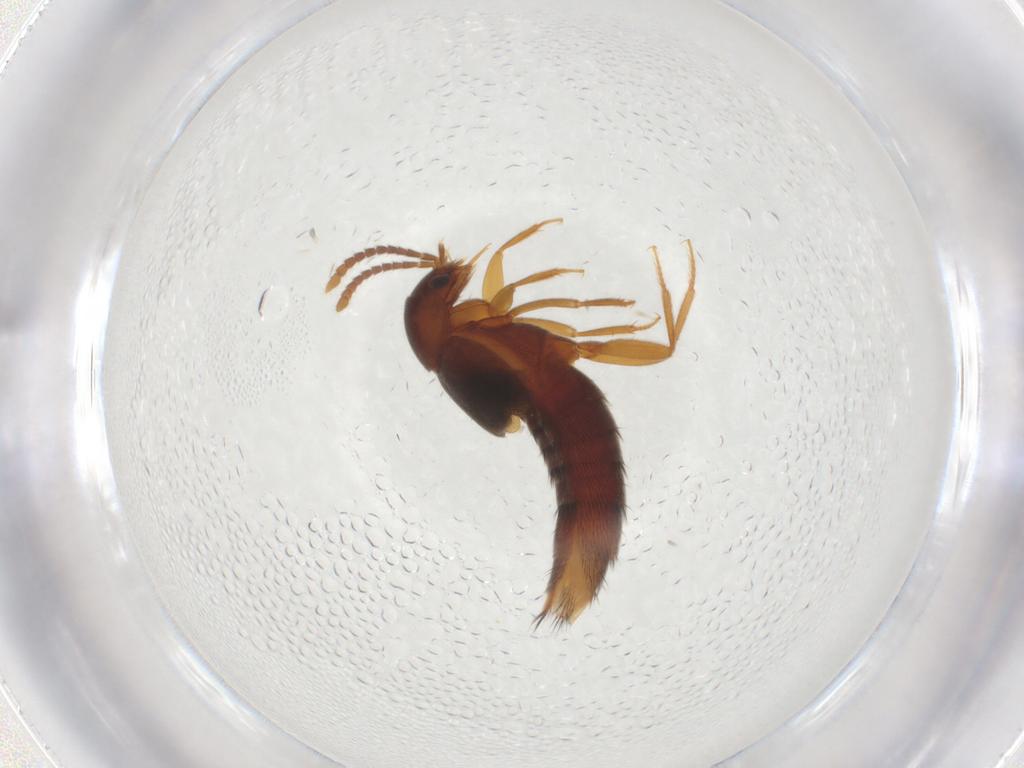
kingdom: Animalia
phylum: Arthropoda
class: Insecta
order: Coleoptera
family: Staphylinidae
